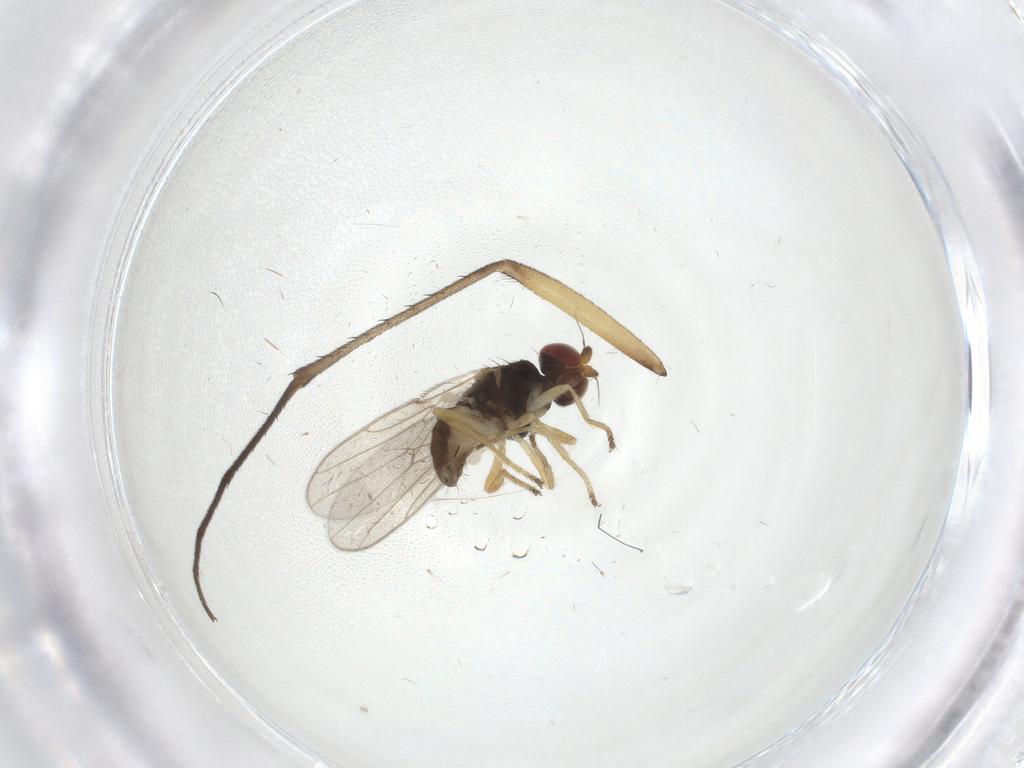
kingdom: Animalia
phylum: Arthropoda
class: Insecta
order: Diptera
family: Chloropidae
